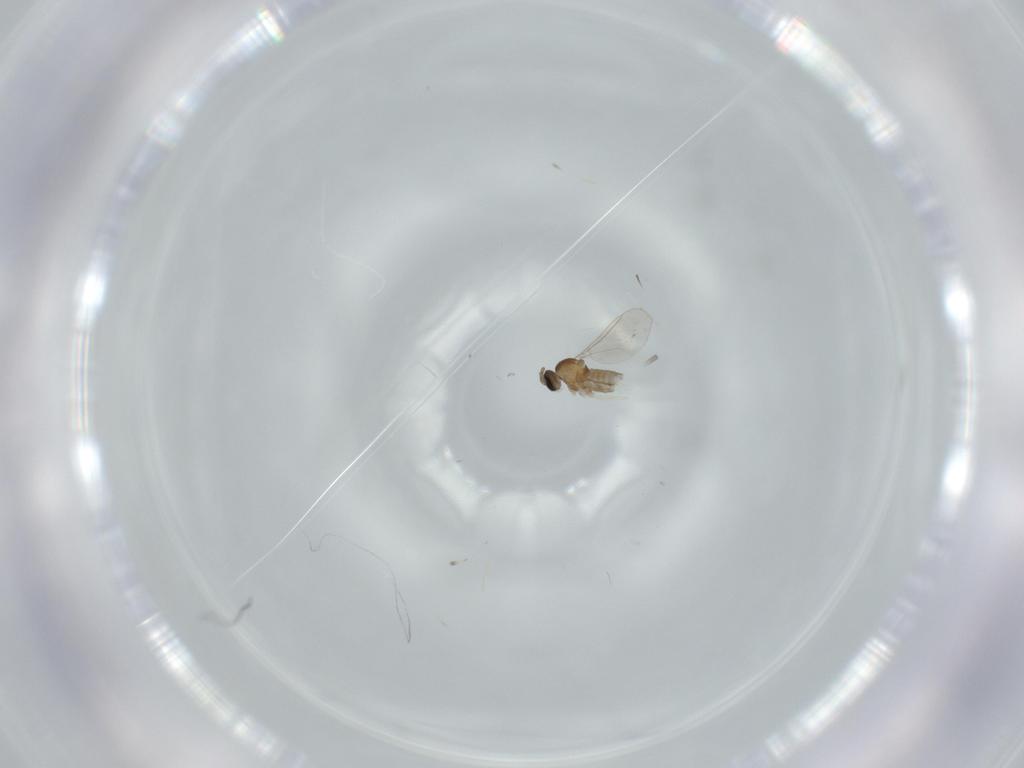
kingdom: Animalia
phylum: Arthropoda
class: Insecta
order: Diptera
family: Cecidomyiidae
